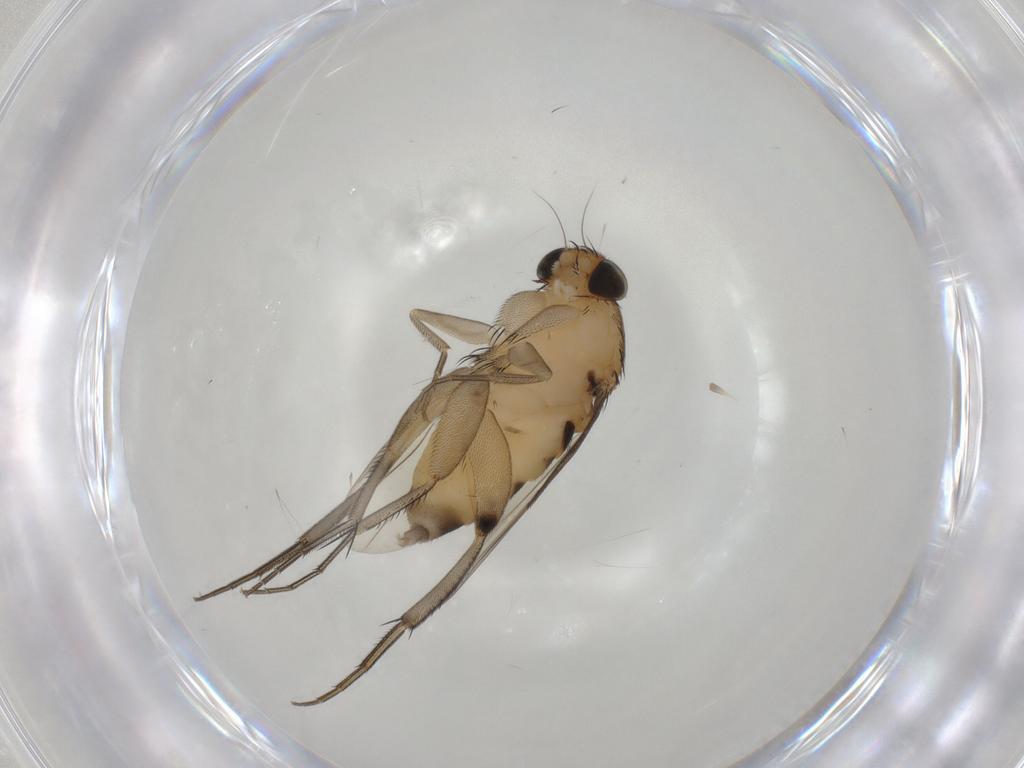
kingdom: Animalia
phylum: Arthropoda
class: Insecta
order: Diptera
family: Phoridae
